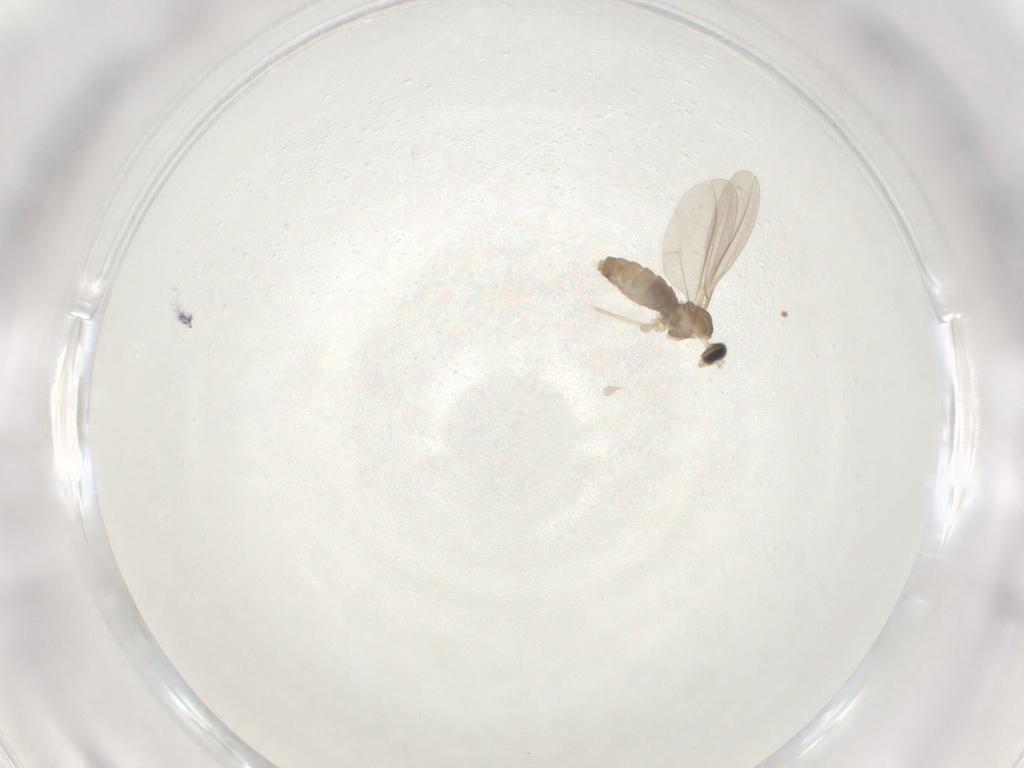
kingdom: Animalia
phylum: Arthropoda
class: Insecta
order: Diptera
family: Cecidomyiidae
